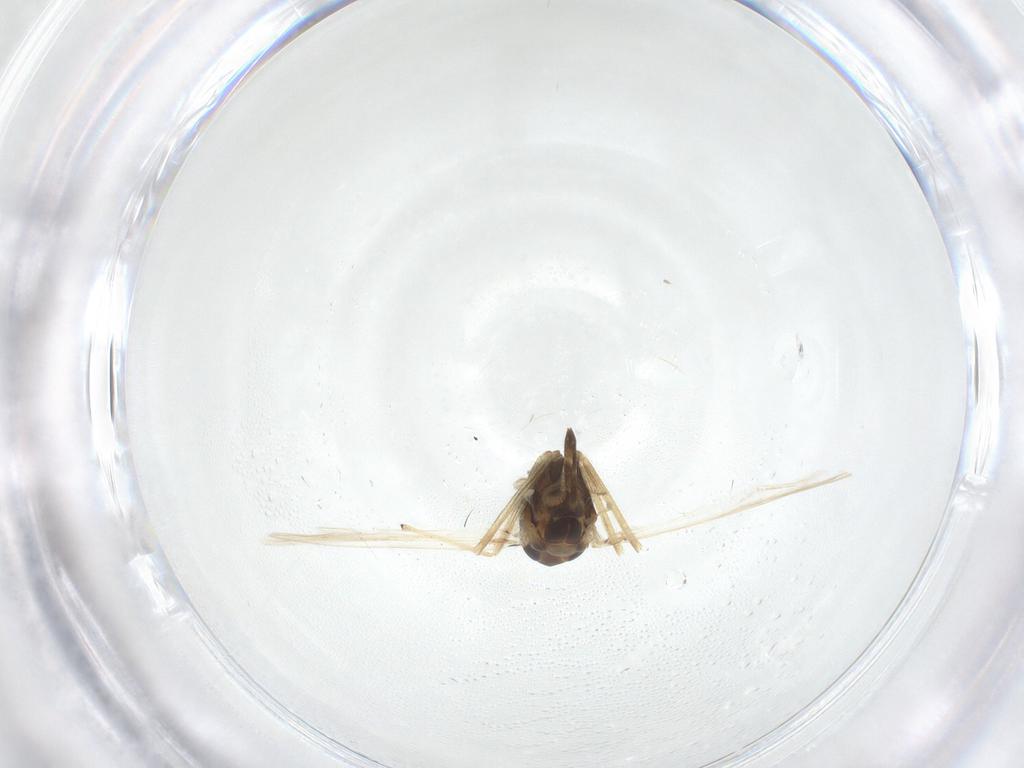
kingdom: Animalia
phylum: Arthropoda
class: Insecta
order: Diptera
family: Chironomidae
